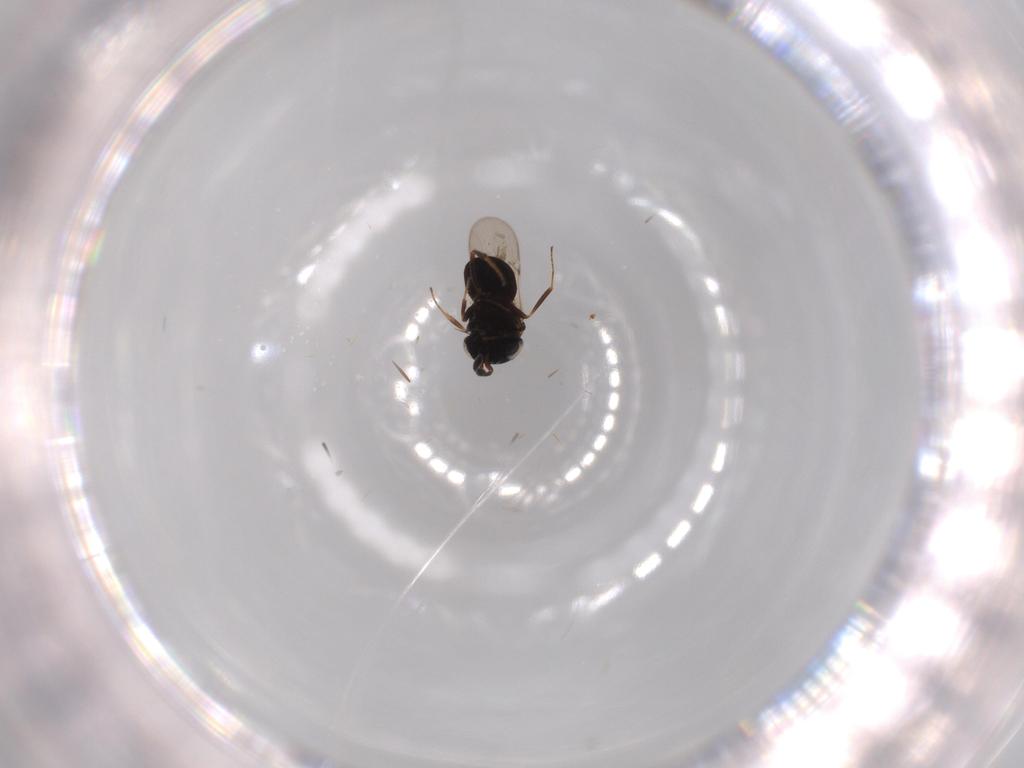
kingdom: Animalia
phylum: Arthropoda
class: Insecta
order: Hymenoptera
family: Scelionidae
